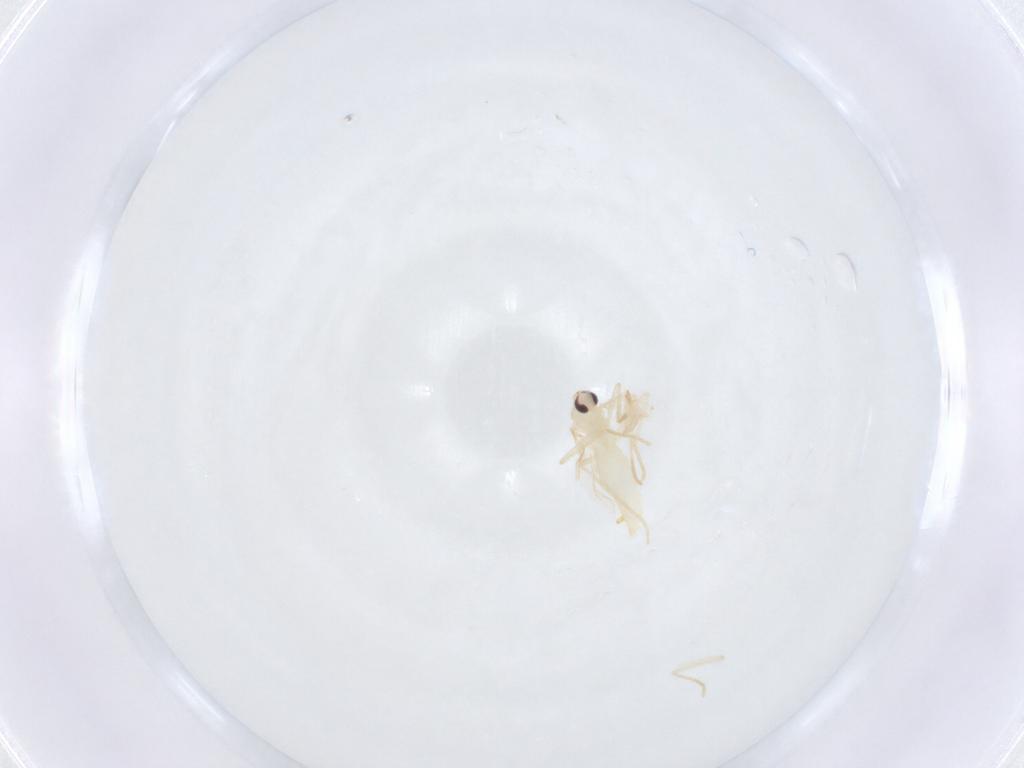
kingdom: Animalia
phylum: Arthropoda
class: Insecta
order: Diptera
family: Ceratopogonidae
